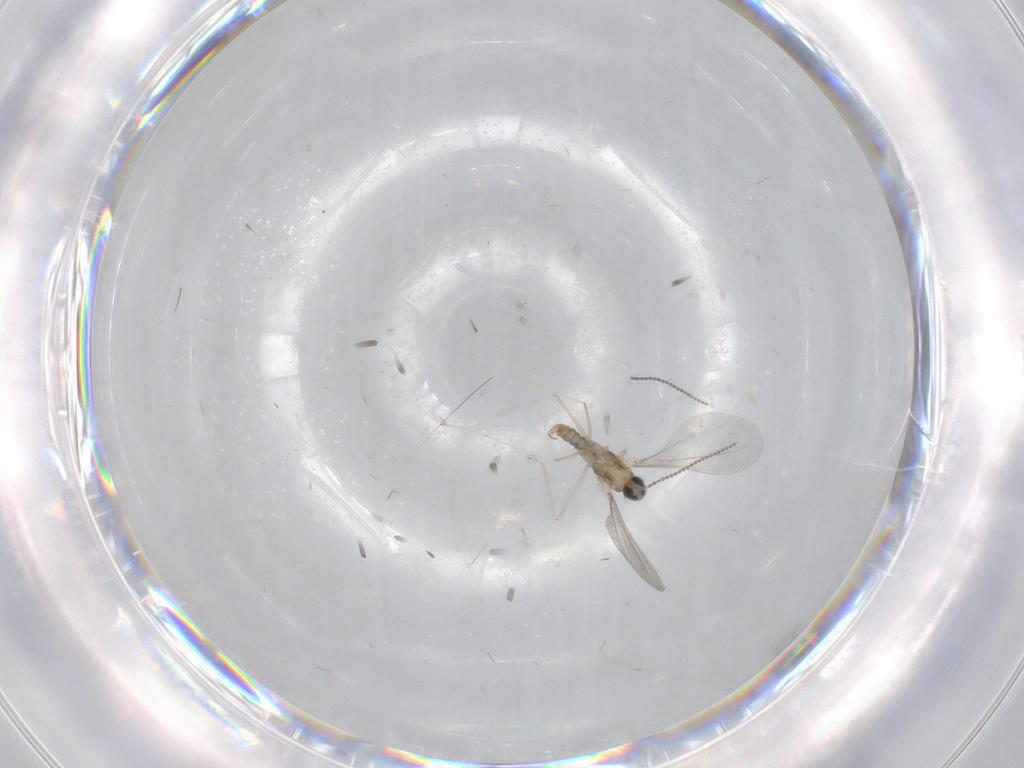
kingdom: Animalia
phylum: Arthropoda
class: Insecta
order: Diptera
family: Cecidomyiidae
